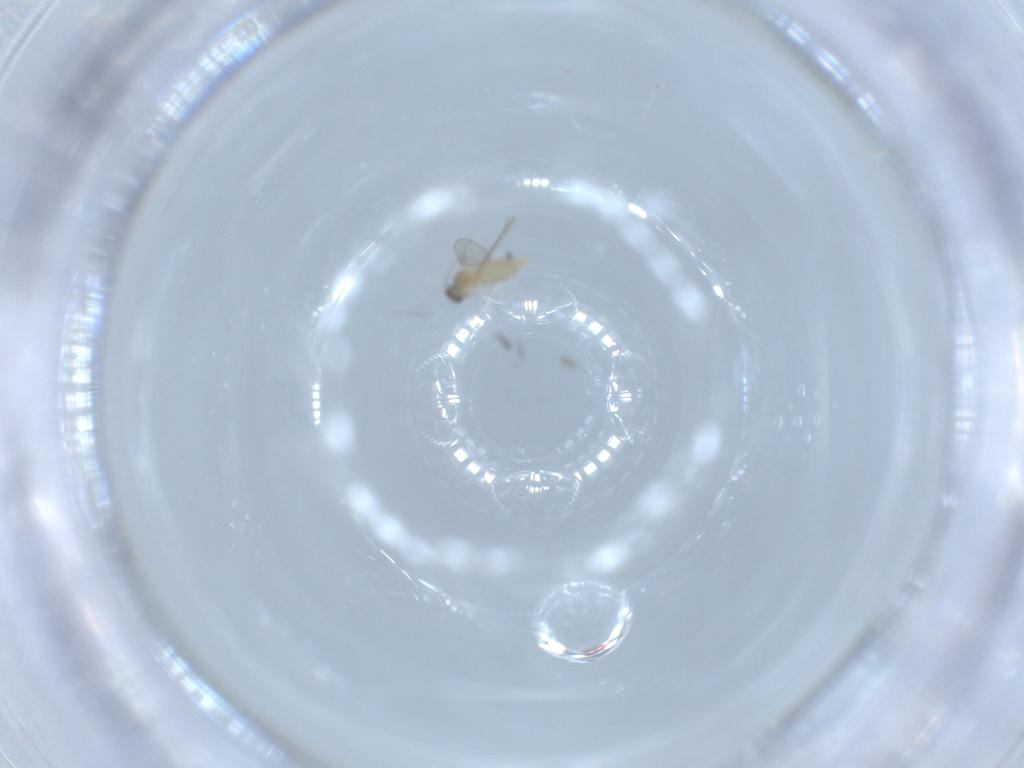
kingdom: Animalia
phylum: Arthropoda
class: Insecta
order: Diptera
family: Cecidomyiidae
